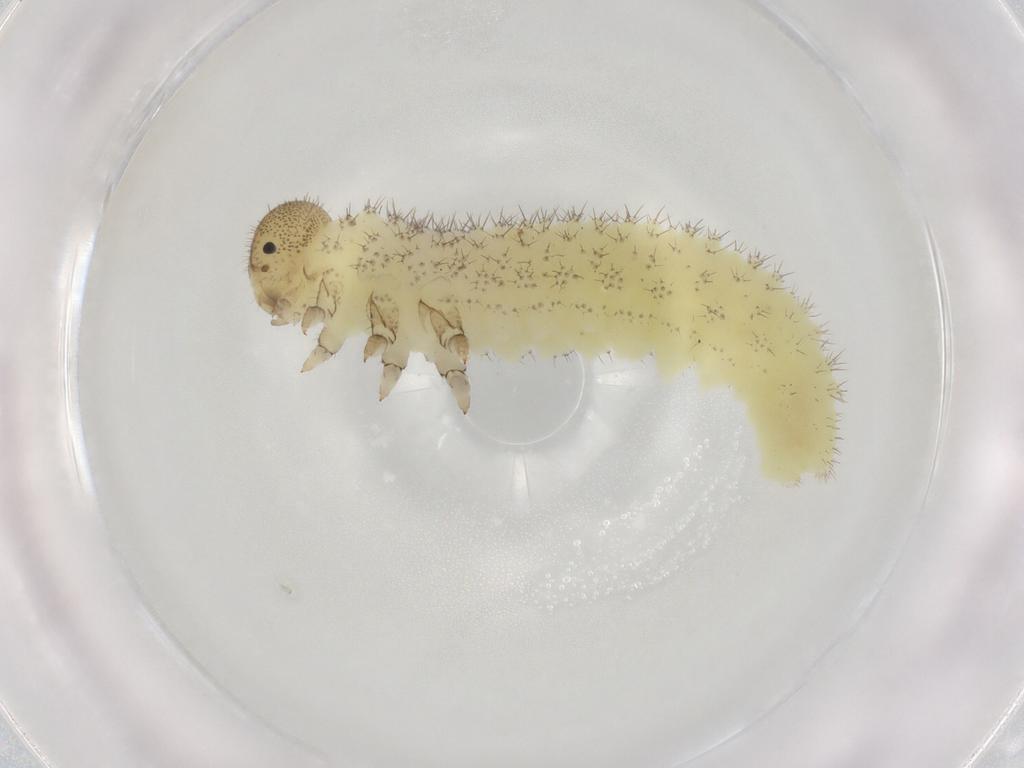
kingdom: Animalia
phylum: Arthropoda
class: Insecta
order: Hymenoptera
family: Tenthredinidae
